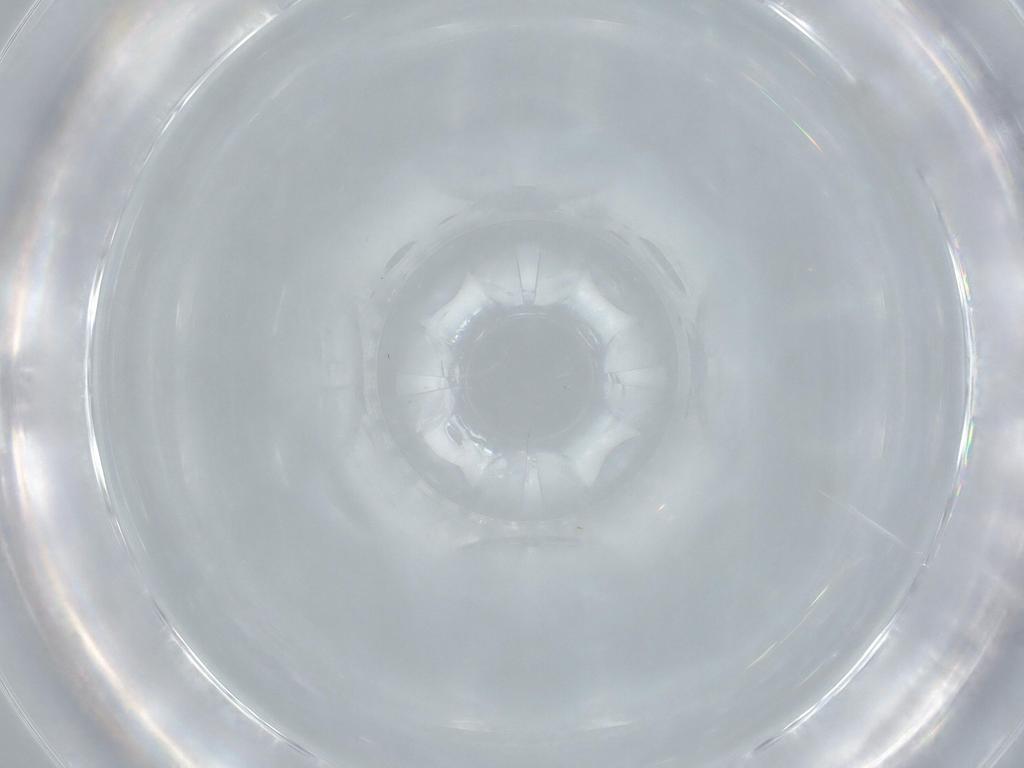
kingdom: Animalia
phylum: Arthropoda
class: Insecta
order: Diptera
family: Cecidomyiidae
